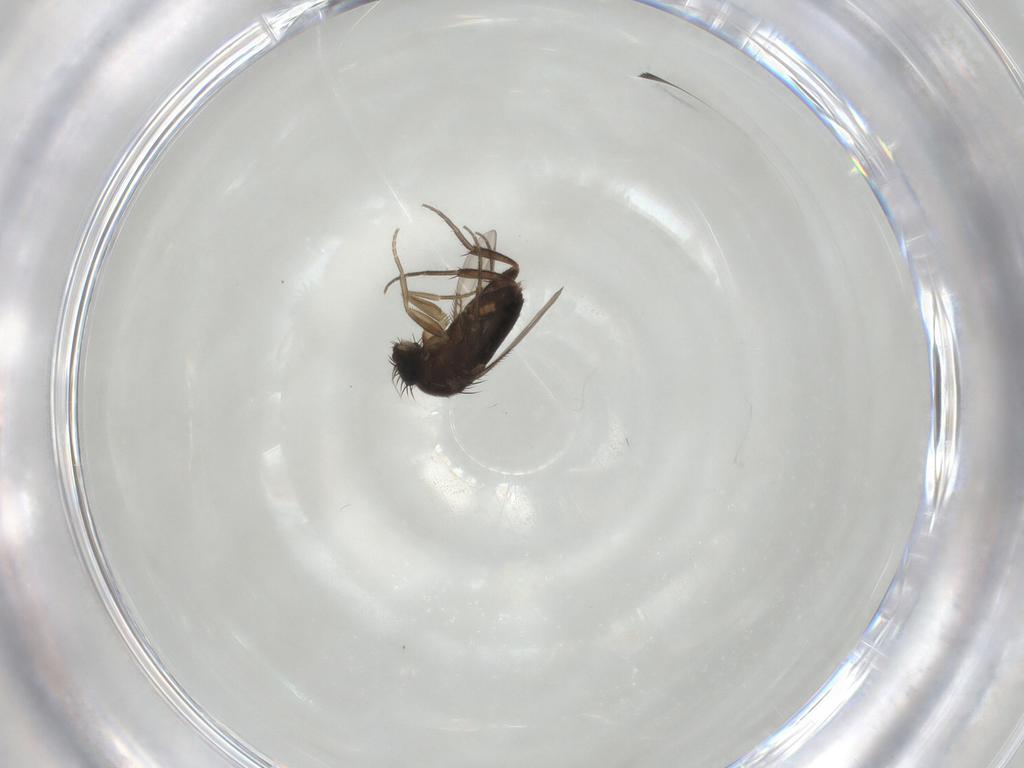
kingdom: Animalia
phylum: Arthropoda
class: Insecta
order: Diptera
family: Phoridae
